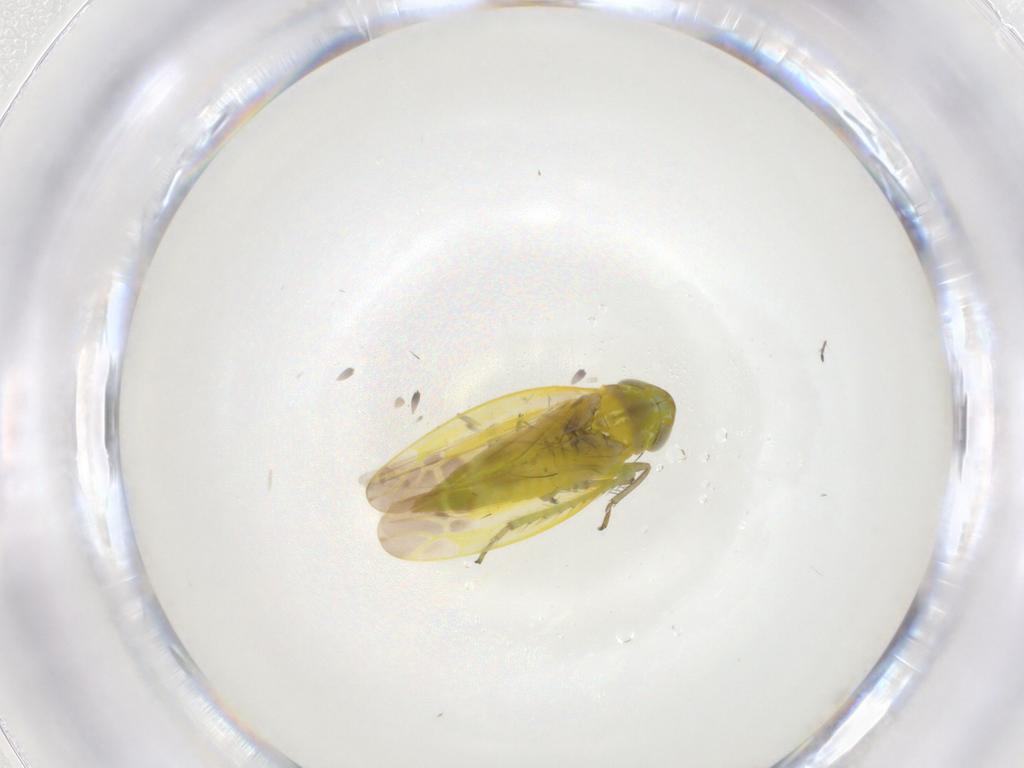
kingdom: Animalia
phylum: Arthropoda
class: Insecta
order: Hemiptera
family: Cicadellidae
